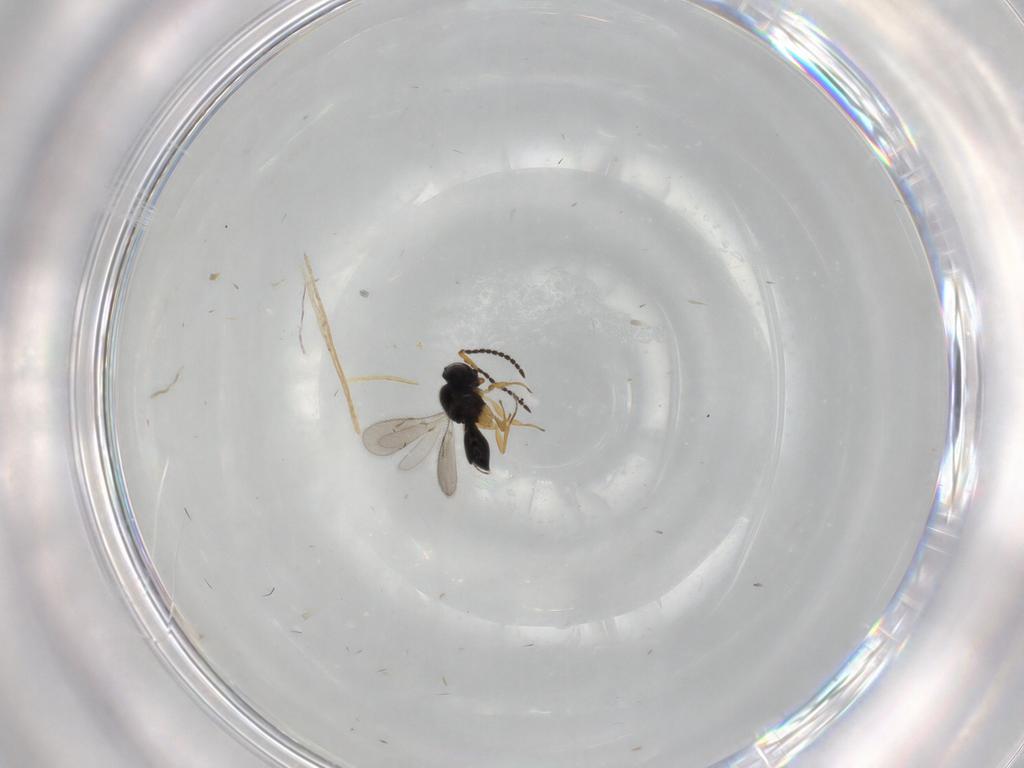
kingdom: Animalia
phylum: Arthropoda
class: Insecta
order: Hymenoptera
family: Scelionidae
